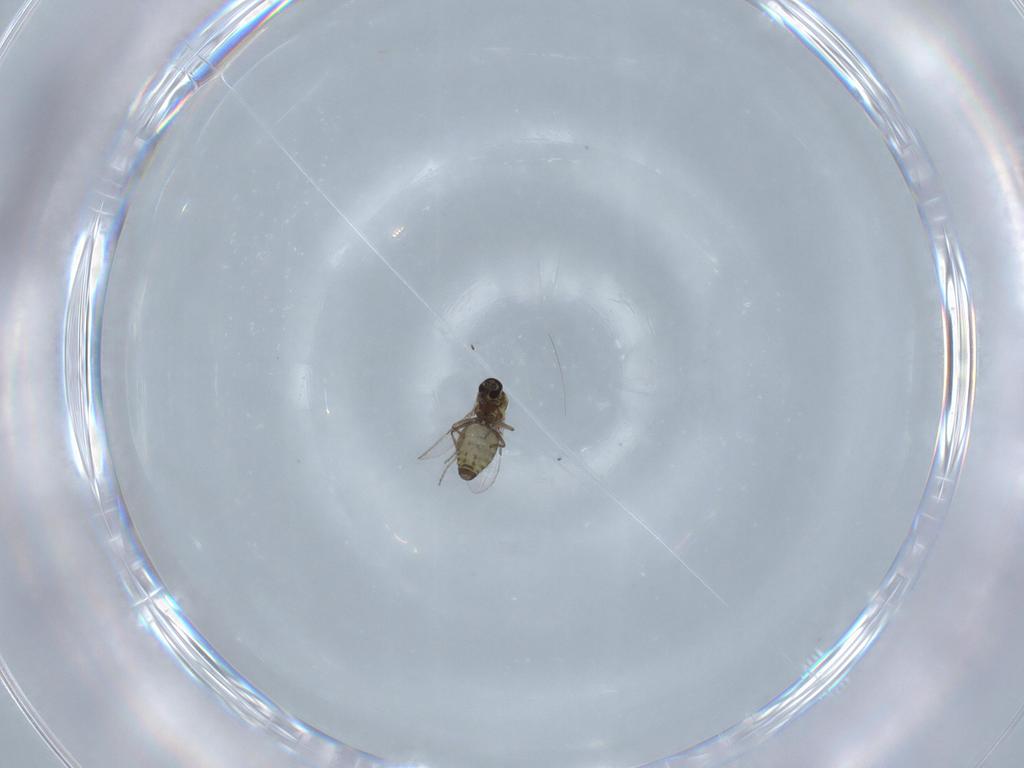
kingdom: Animalia
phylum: Arthropoda
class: Insecta
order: Diptera
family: Ceratopogonidae
